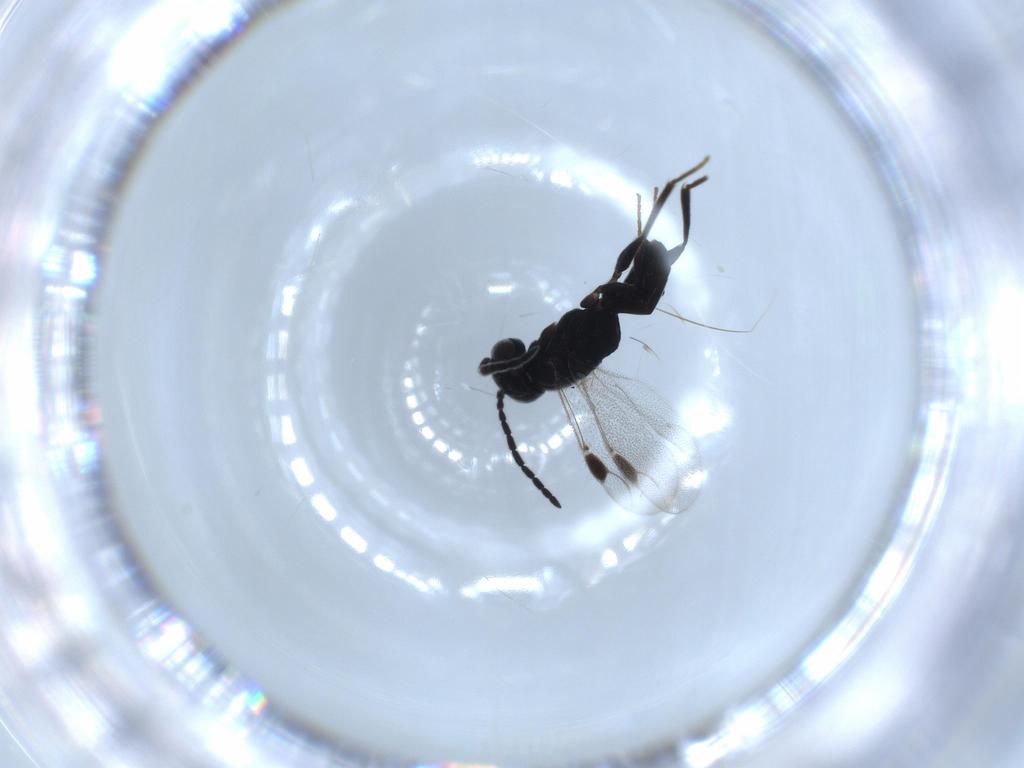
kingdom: Animalia
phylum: Arthropoda
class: Insecta
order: Hymenoptera
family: Dryinidae
